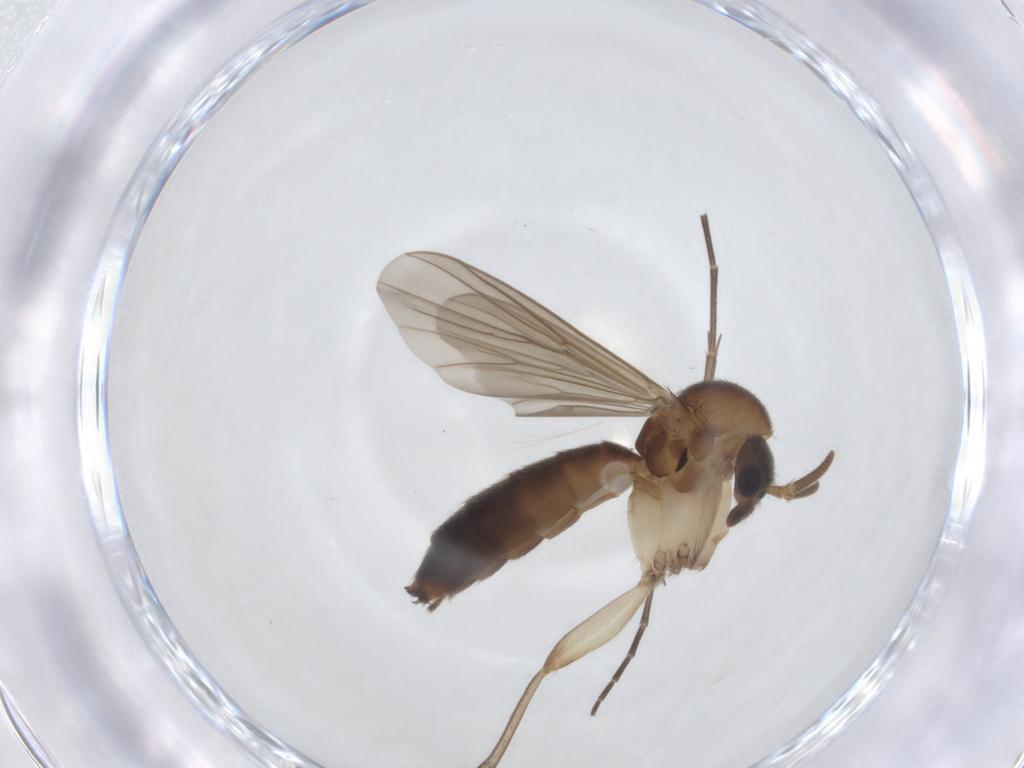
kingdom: Animalia
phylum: Arthropoda
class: Insecta
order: Diptera
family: Mycetophilidae
